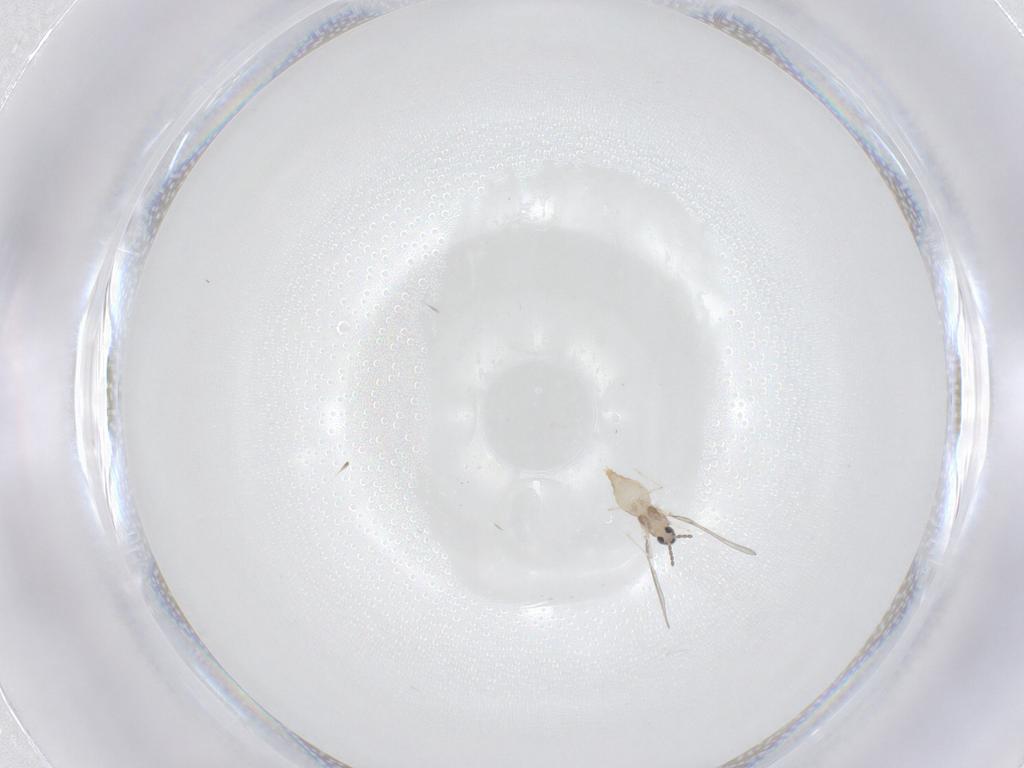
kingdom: Animalia
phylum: Arthropoda
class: Insecta
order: Diptera
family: Cecidomyiidae
